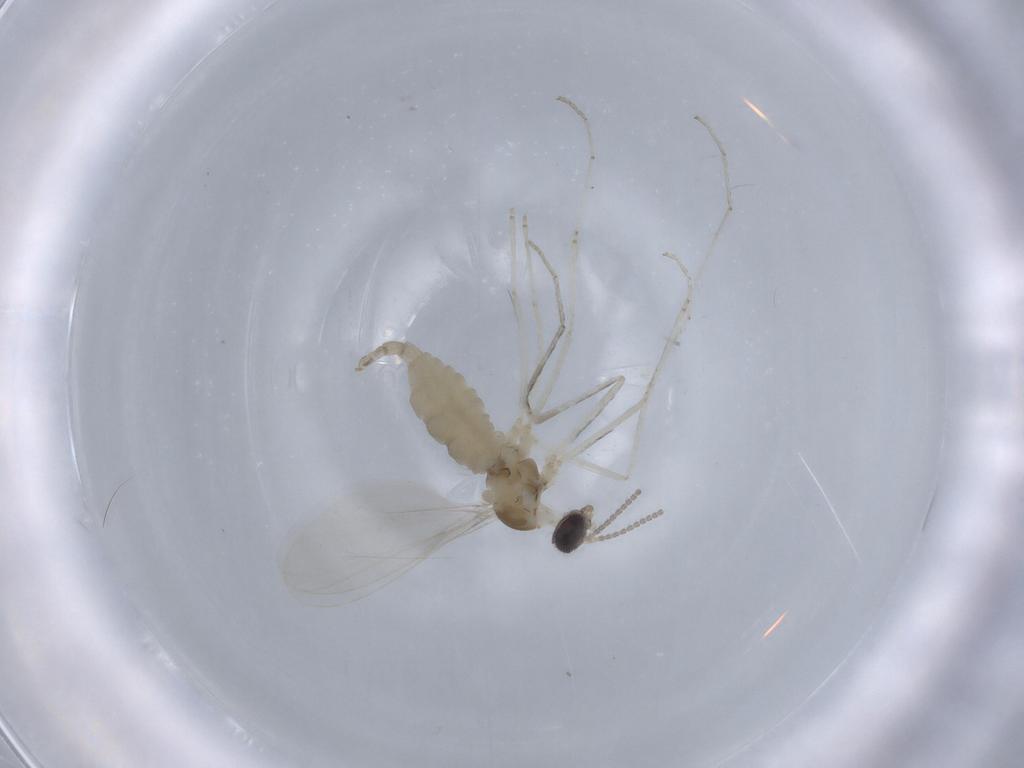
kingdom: Animalia
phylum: Arthropoda
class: Insecta
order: Diptera
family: Cecidomyiidae
